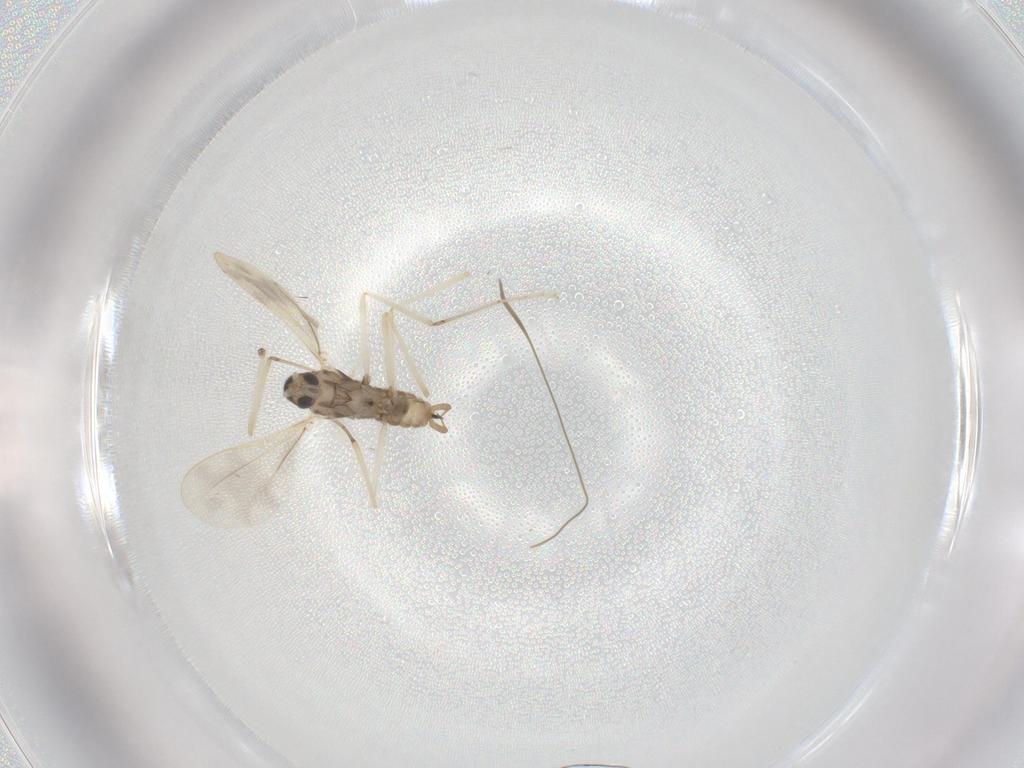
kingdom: Animalia
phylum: Arthropoda
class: Insecta
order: Diptera
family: Cecidomyiidae
